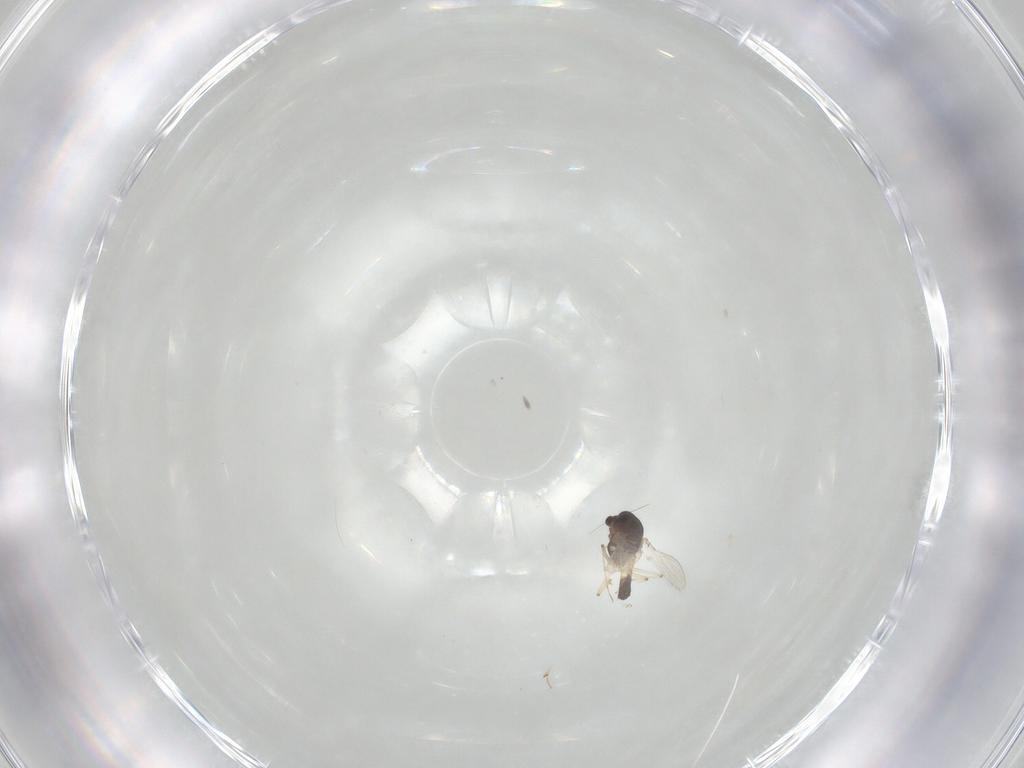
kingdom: Animalia
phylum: Arthropoda
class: Insecta
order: Diptera
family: Chironomidae
